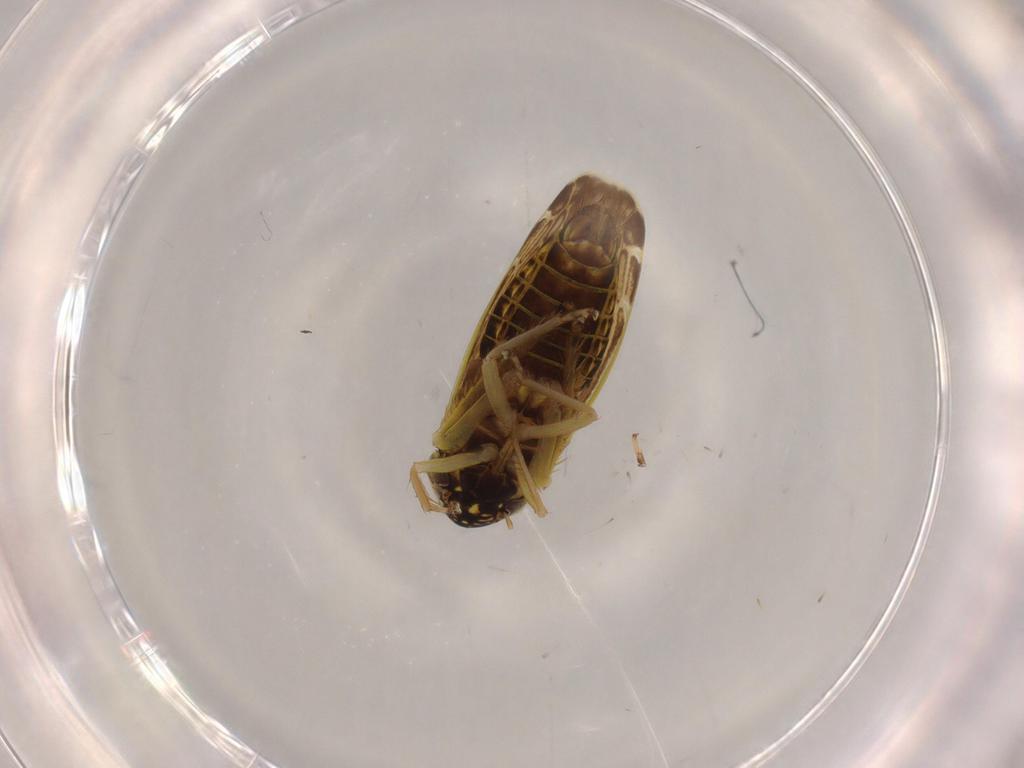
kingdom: Animalia
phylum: Arthropoda
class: Insecta
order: Hemiptera
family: Cicadellidae
